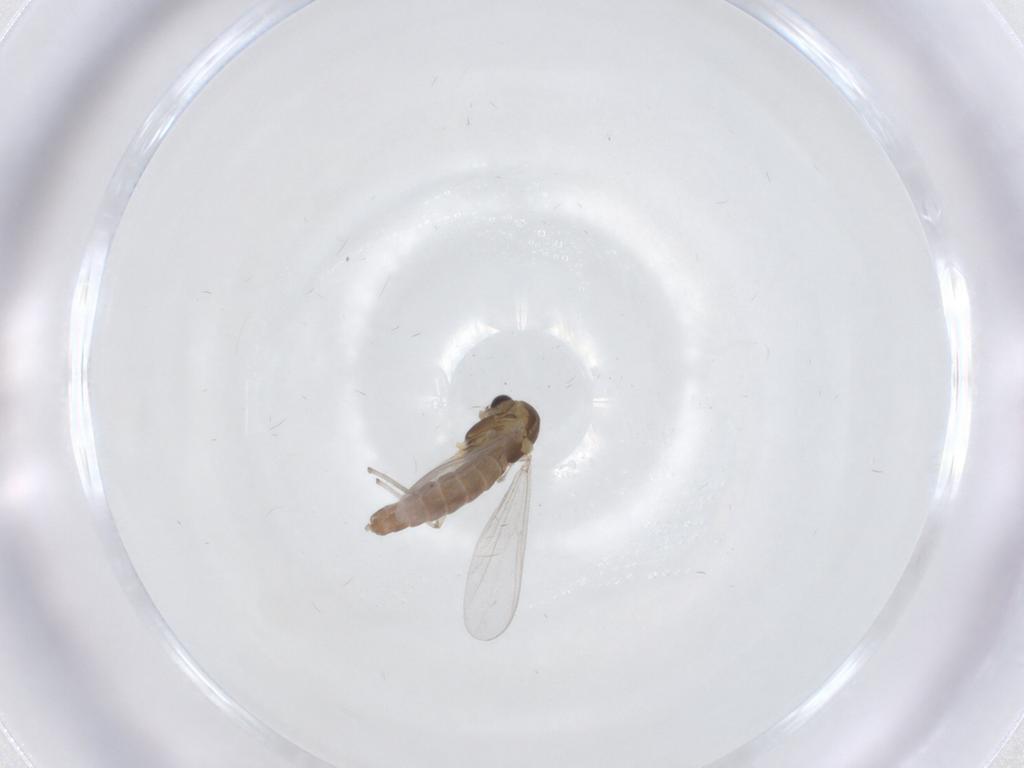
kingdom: Animalia
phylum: Arthropoda
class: Insecta
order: Diptera
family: Chironomidae
